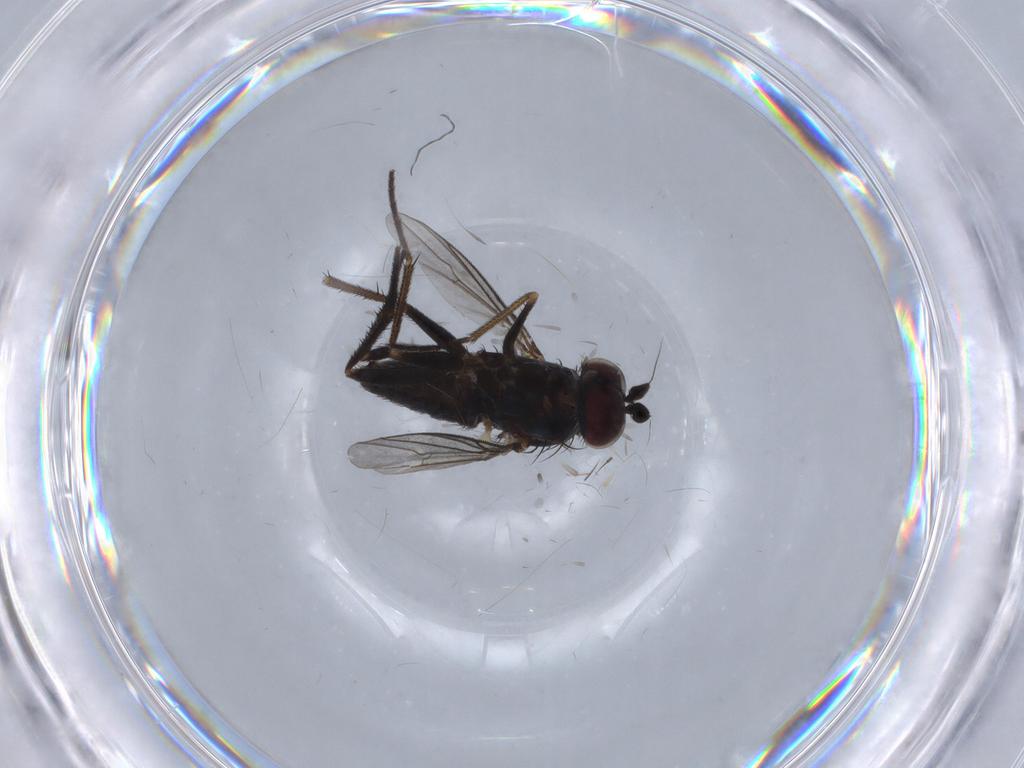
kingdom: Animalia
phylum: Arthropoda
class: Insecta
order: Diptera
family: Dolichopodidae
